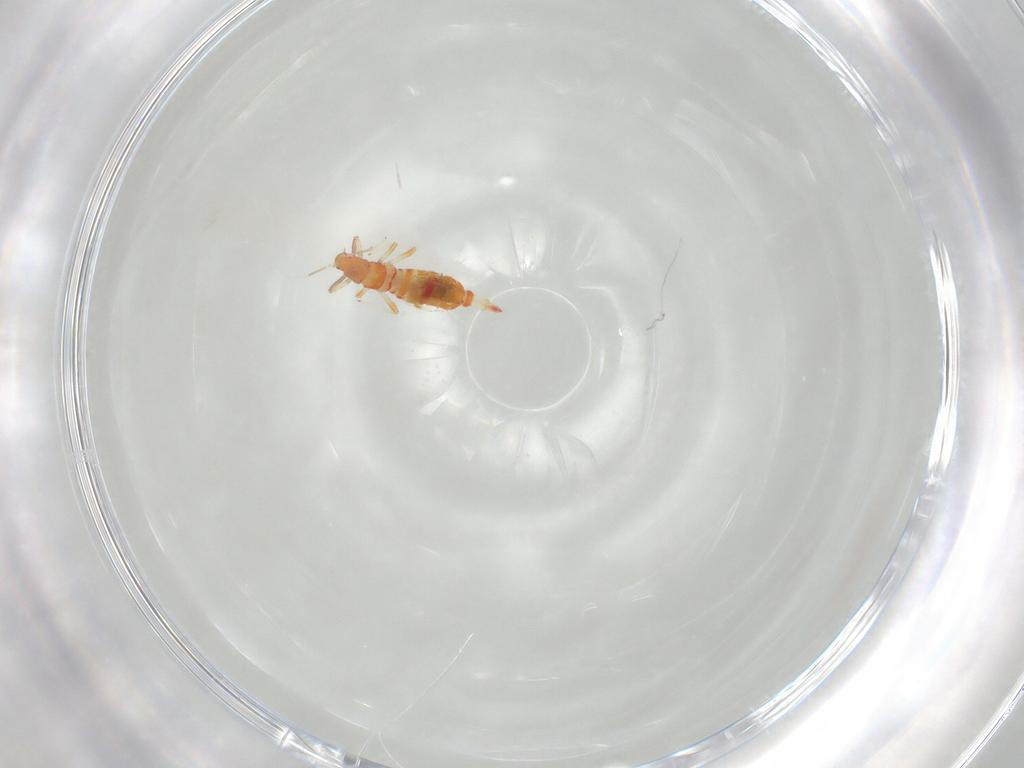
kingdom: Animalia
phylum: Arthropoda
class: Insecta
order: Thysanoptera
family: Aeolothripidae
